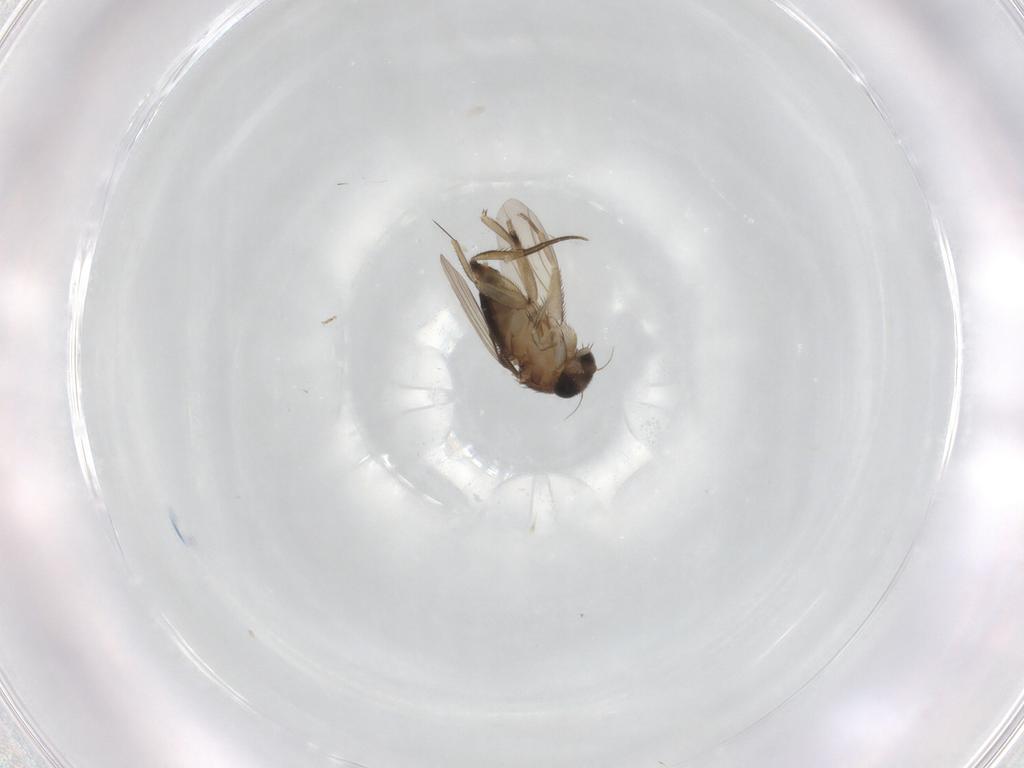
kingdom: Animalia
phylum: Arthropoda
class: Insecta
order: Diptera
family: Phoridae
